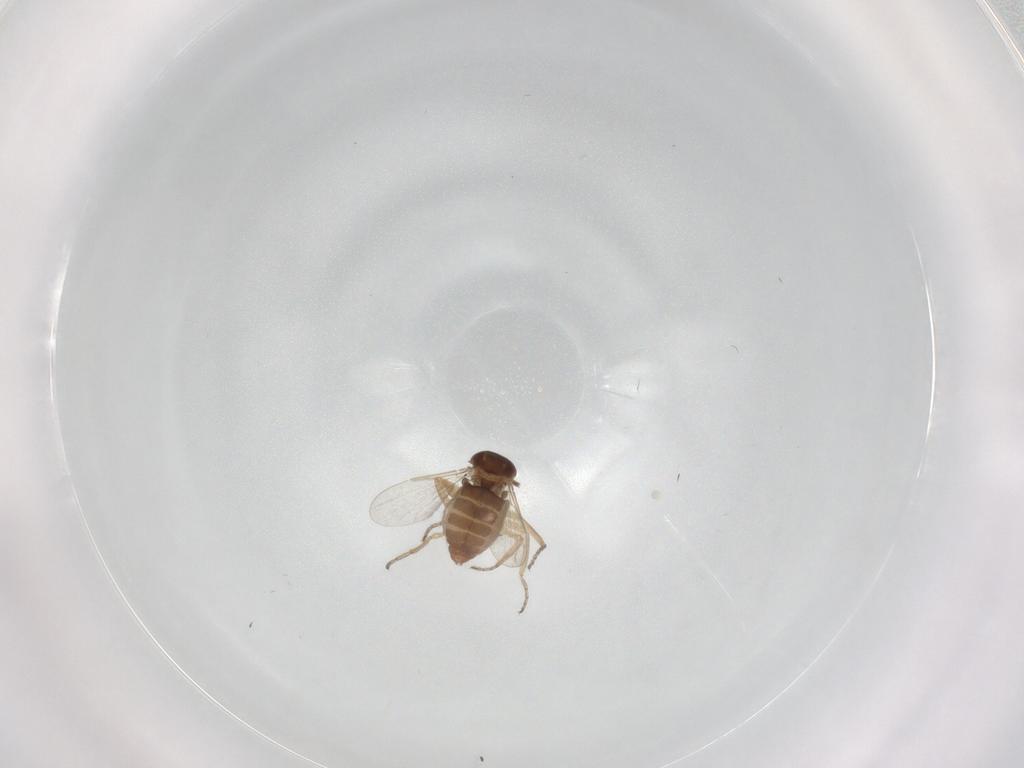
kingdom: Animalia
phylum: Arthropoda
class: Insecta
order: Diptera
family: Ceratopogonidae
